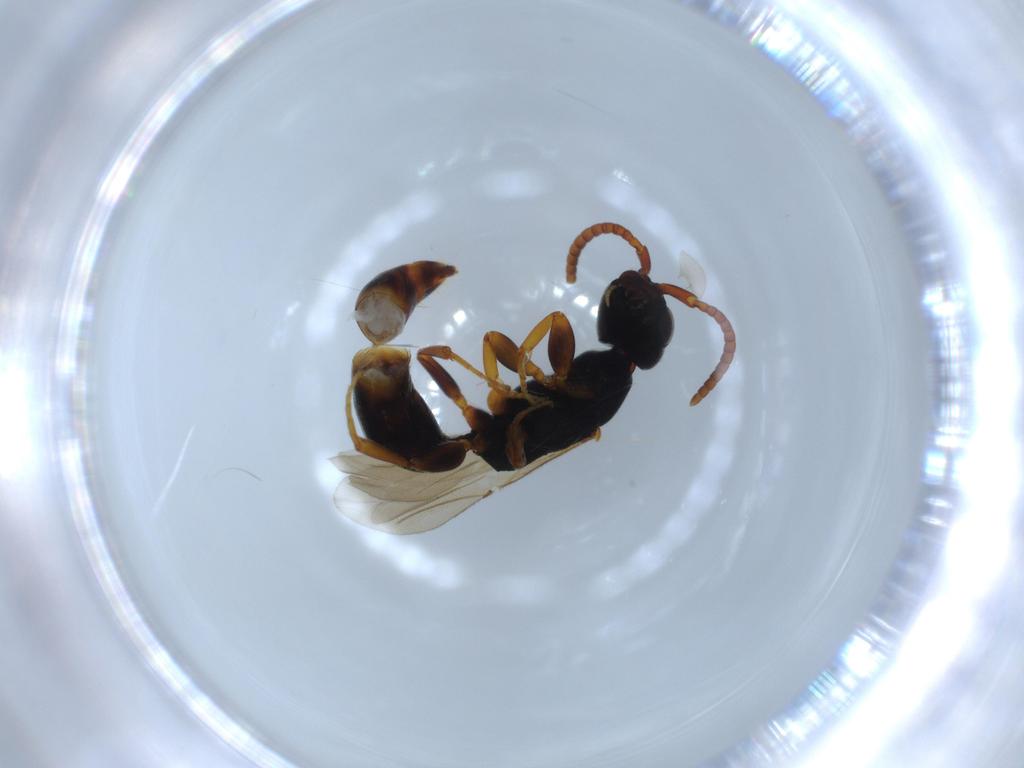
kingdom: Animalia
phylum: Arthropoda
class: Insecta
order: Hymenoptera
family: Bethylidae
